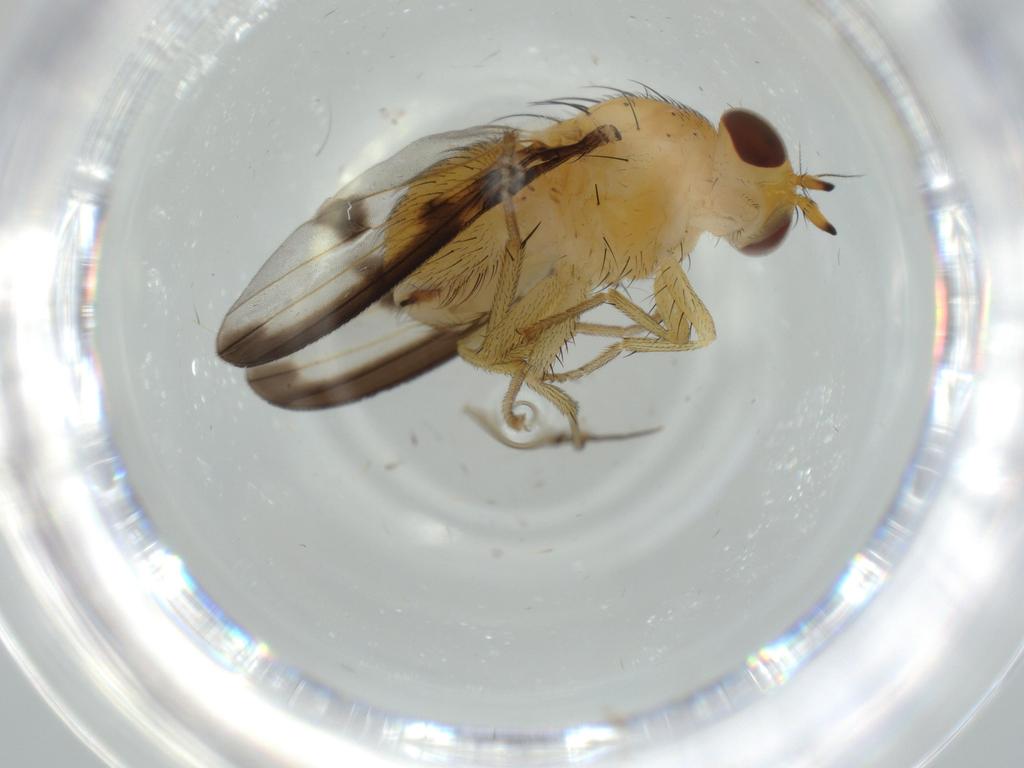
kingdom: Animalia
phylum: Arthropoda
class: Insecta
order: Diptera
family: Lauxaniidae
